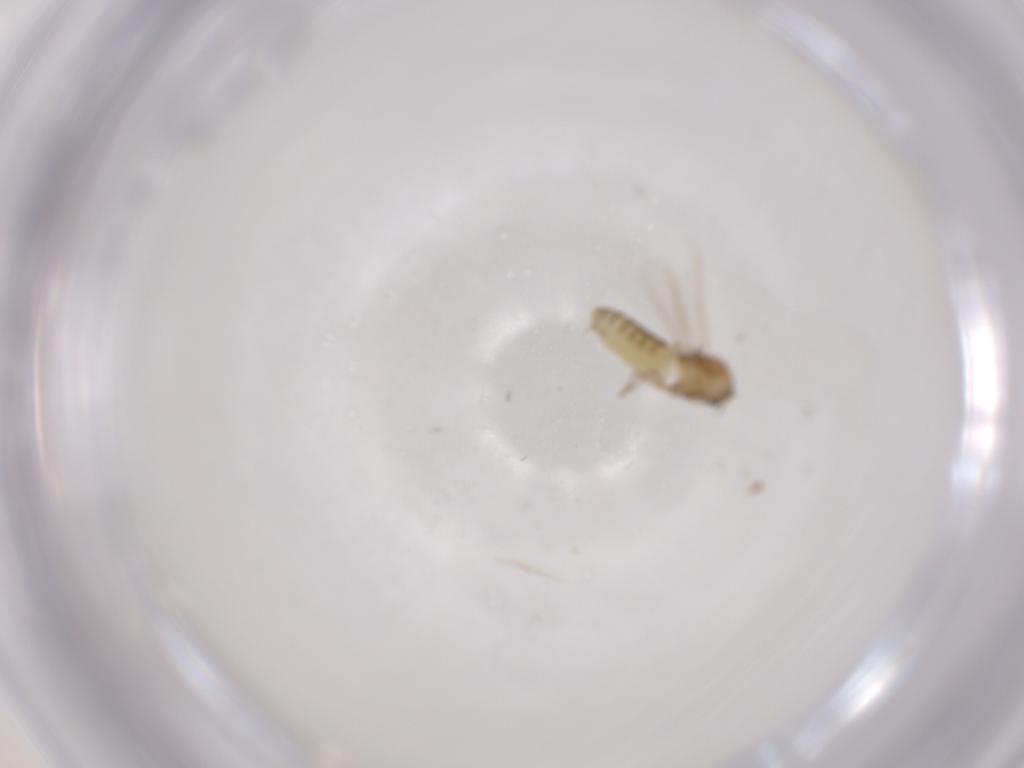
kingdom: Animalia
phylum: Arthropoda
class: Insecta
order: Diptera
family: Chironomidae
